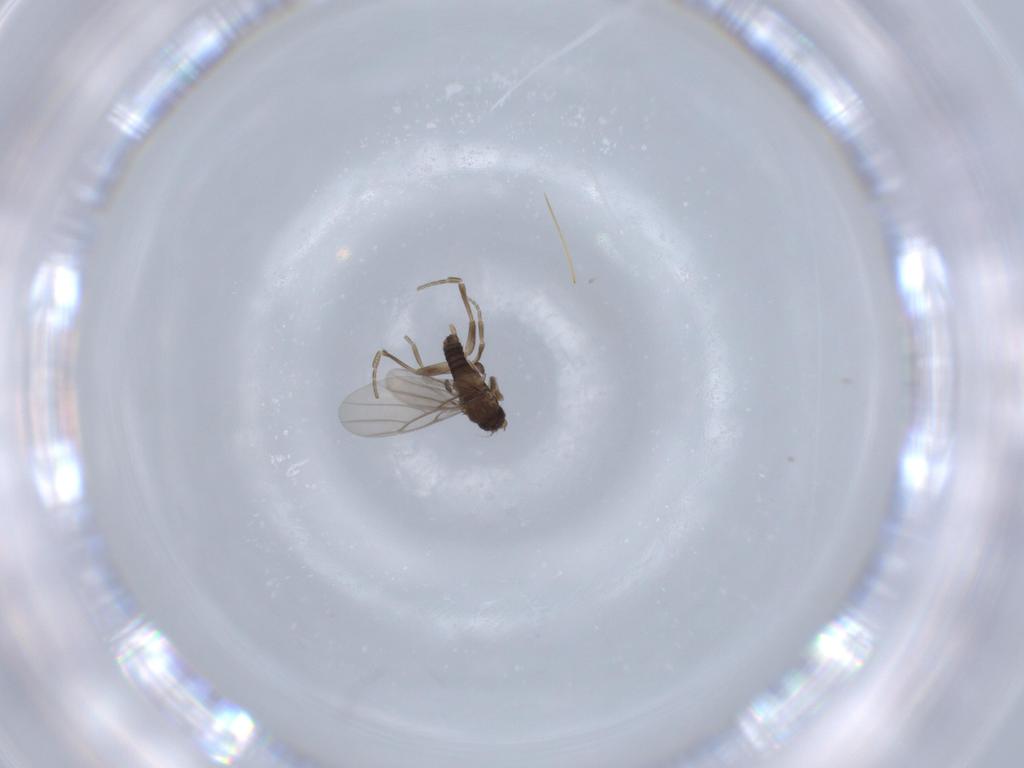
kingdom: Animalia
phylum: Arthropoda
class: Insecta
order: Diptera
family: Phoridae
